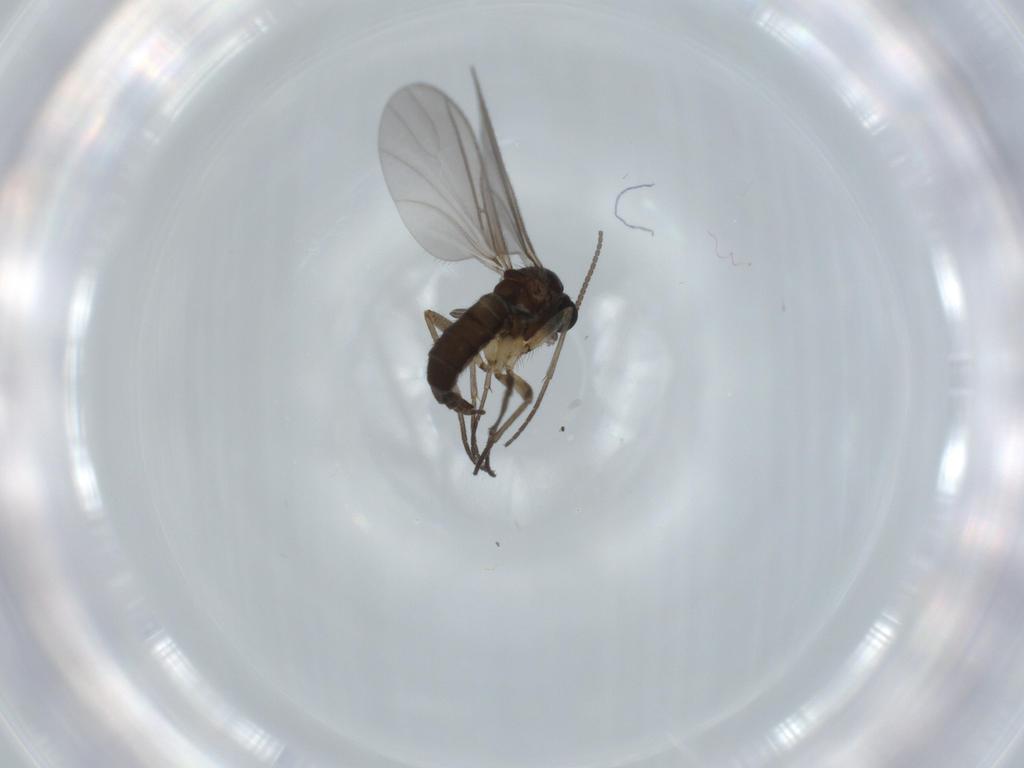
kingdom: Animalia
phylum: Arthropoda
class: Insecta
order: Diptera
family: Sciaridae
